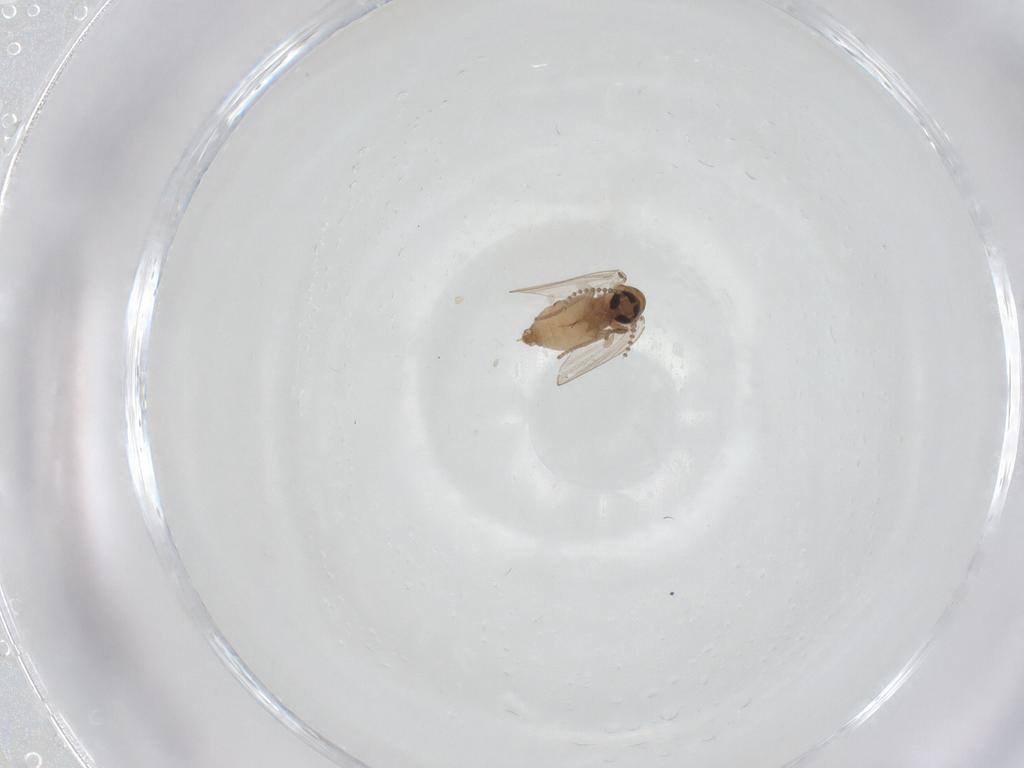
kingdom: Animalia
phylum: Arthropoda
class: Insecta
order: Diptera
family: Psychodidae
